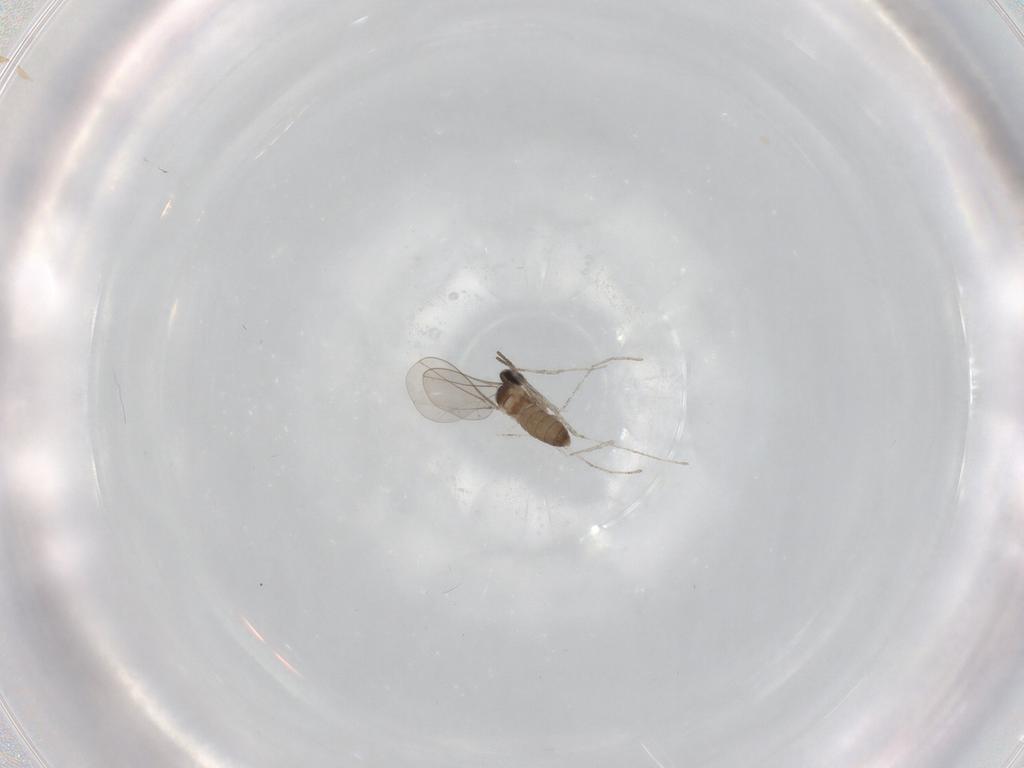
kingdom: Animalia
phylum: Arthropoda
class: Insecta
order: Diptera
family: Cecidomyiidae
